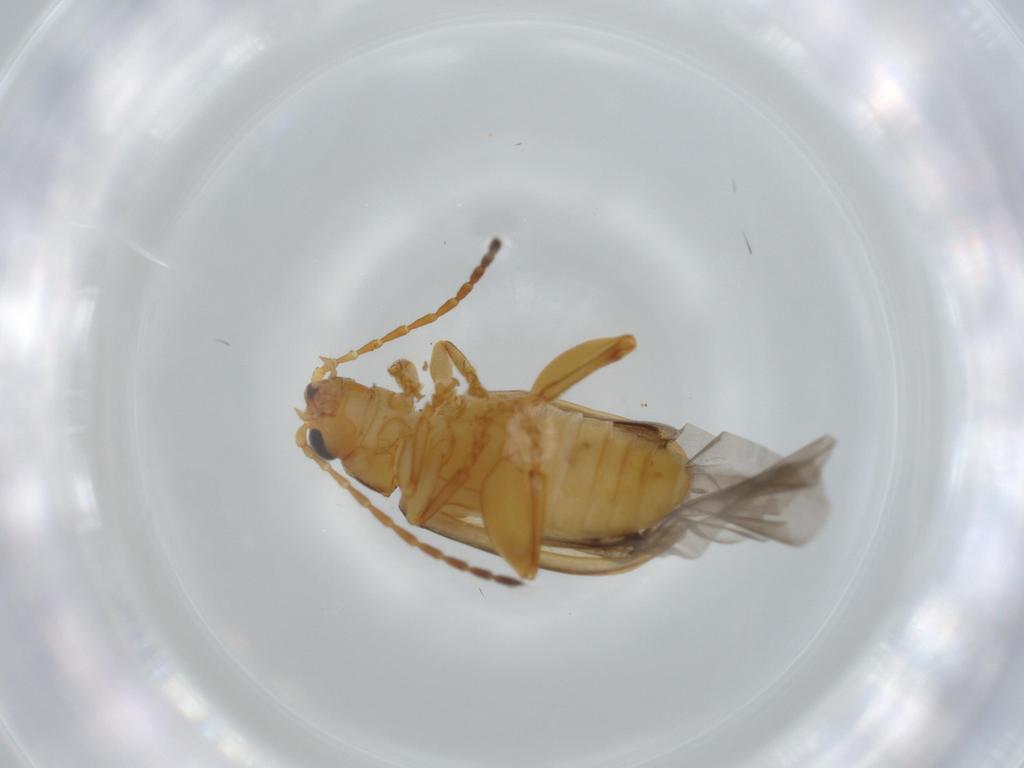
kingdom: Animalia
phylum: Arthropoda
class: Insecta
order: Coleoptera
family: Chrysomelidae
